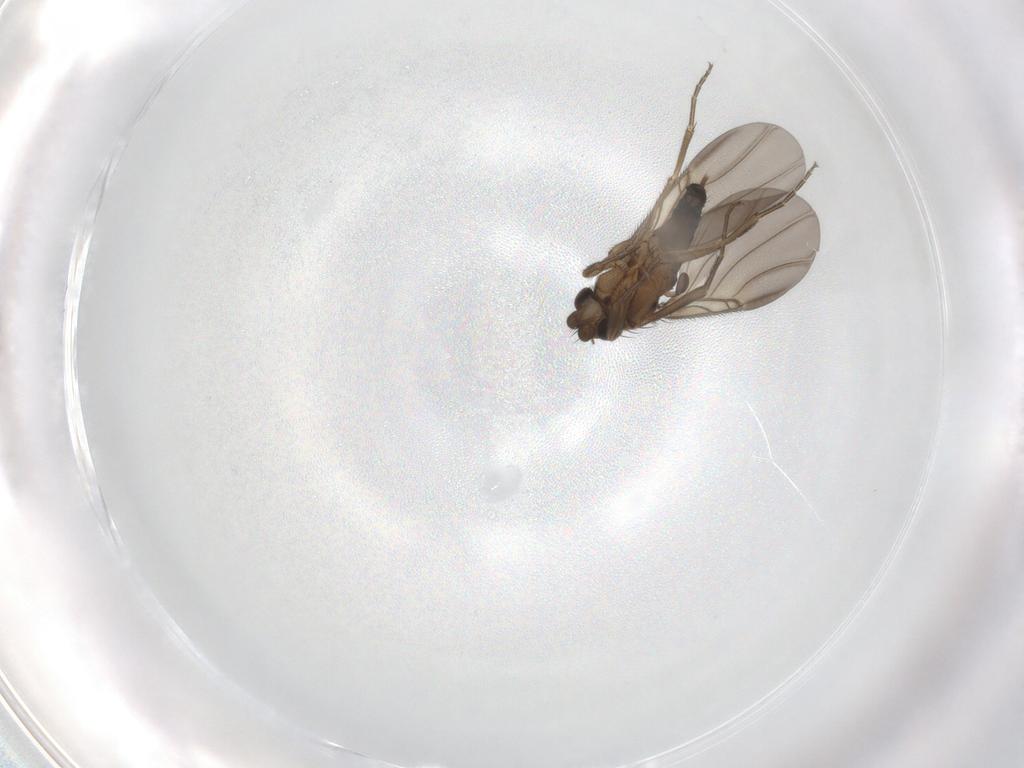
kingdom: Animalia
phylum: Arthropoda
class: Insecta
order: Diptera
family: Phoridae
